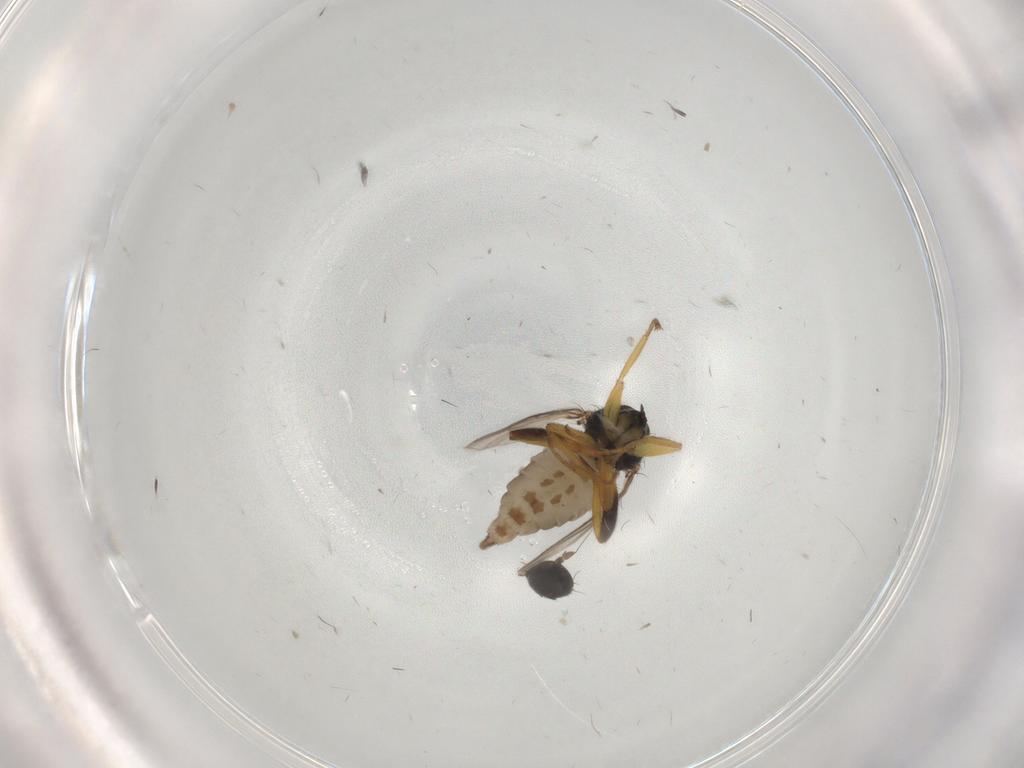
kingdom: Animalia
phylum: Arthropoda
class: Insecta
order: Diptera
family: Hybotidae
